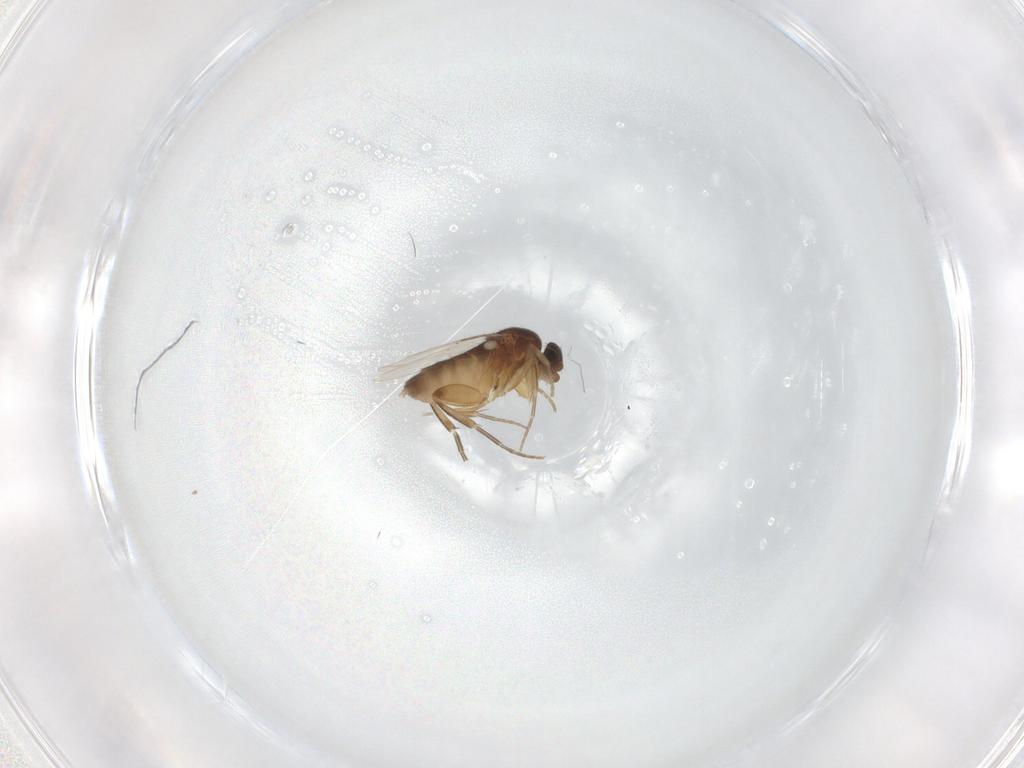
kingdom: Animalia
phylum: Arthropoda
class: Insecta
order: Diptera
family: Phoridae
